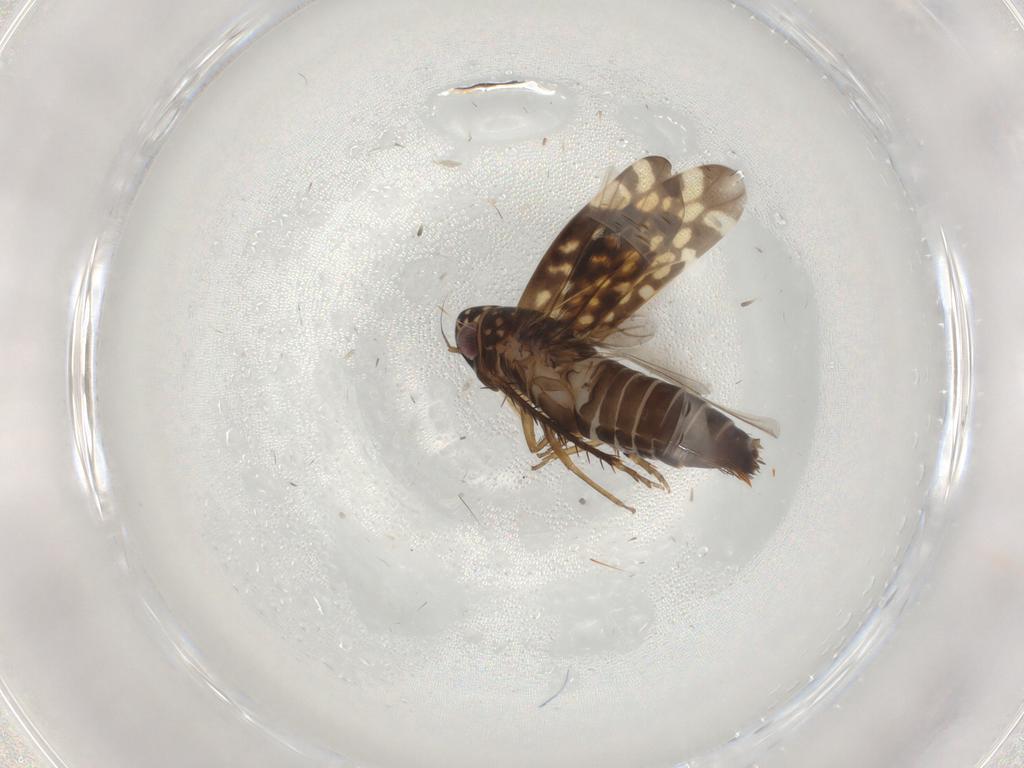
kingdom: Animalia
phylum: Arthropoda
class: Insecta
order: Hemiptera
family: Cicadellidae
